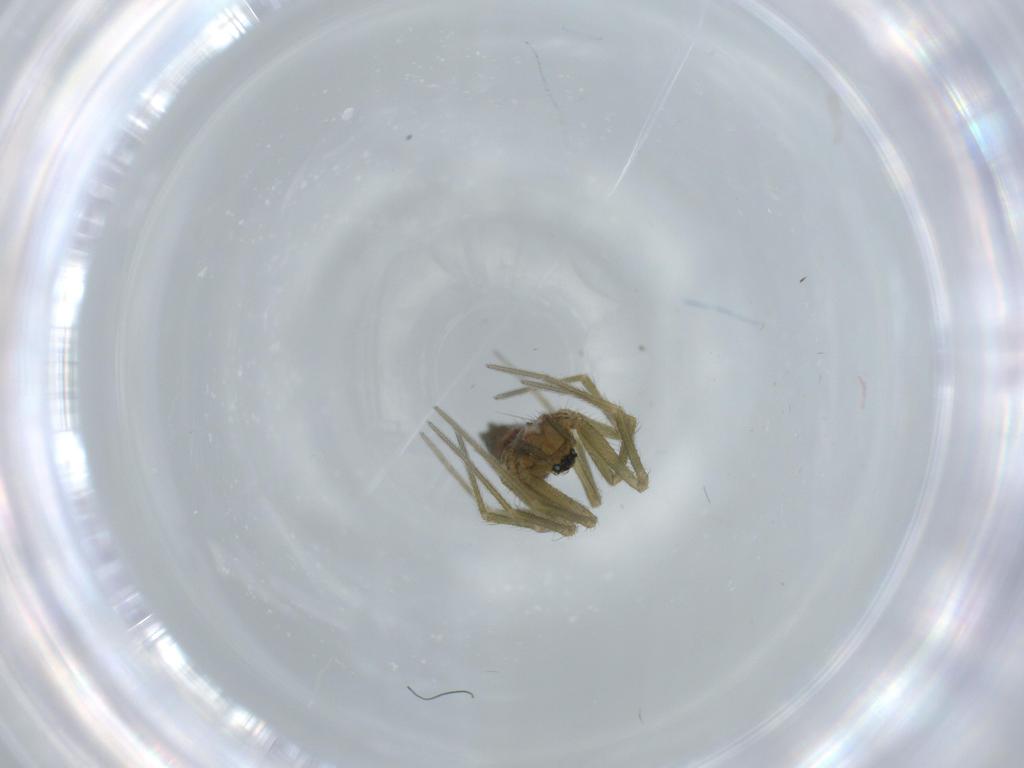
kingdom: Animalia
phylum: Arthropoda
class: Arachnida
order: Araneae
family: Linyphiidae
